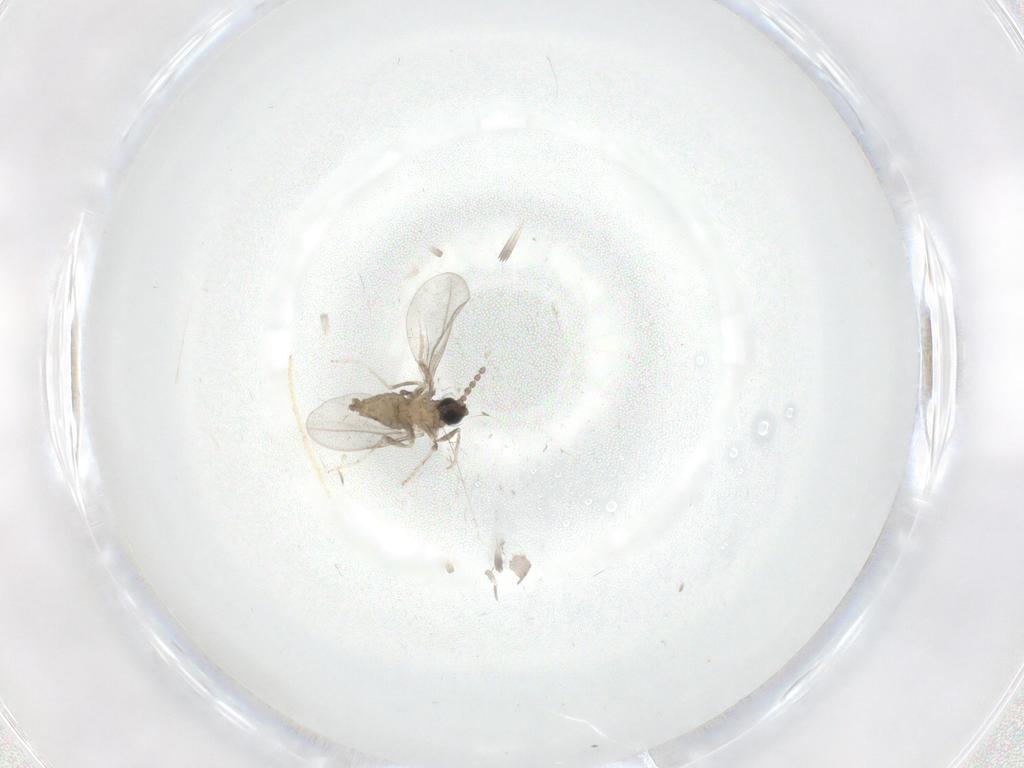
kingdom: Animalia
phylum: Arthropoda
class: Insecta
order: Diptera
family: Cecidomyiidae
